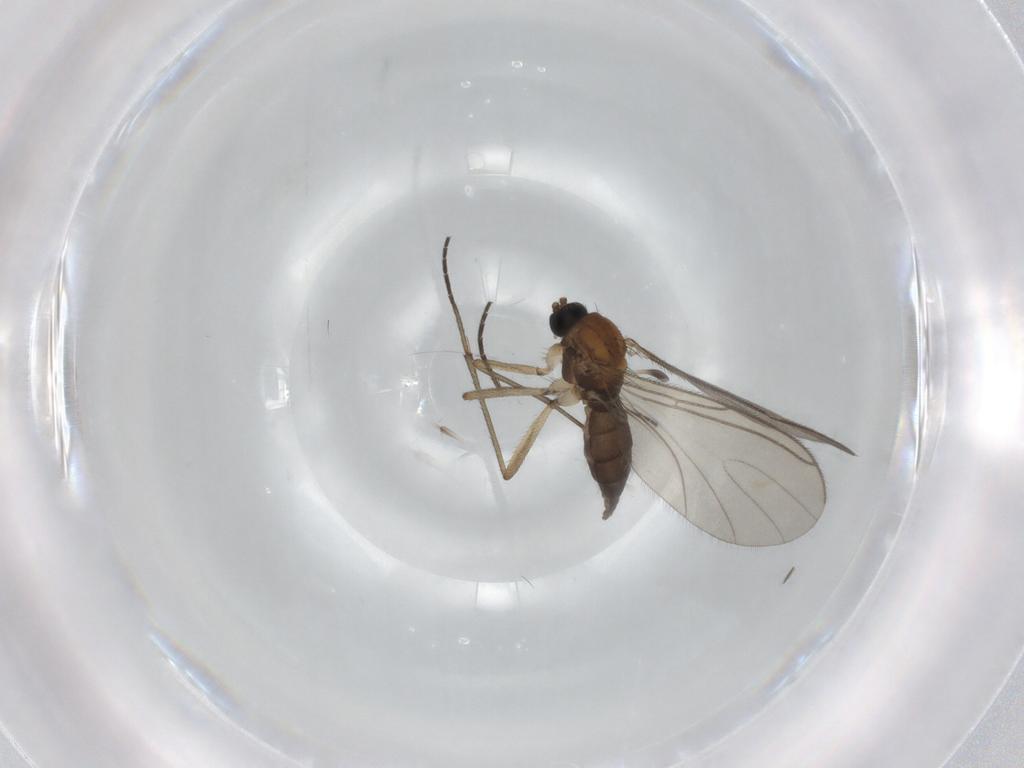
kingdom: Animalia
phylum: Arthropoda
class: Insecta
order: Diptera
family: Sciaridae
